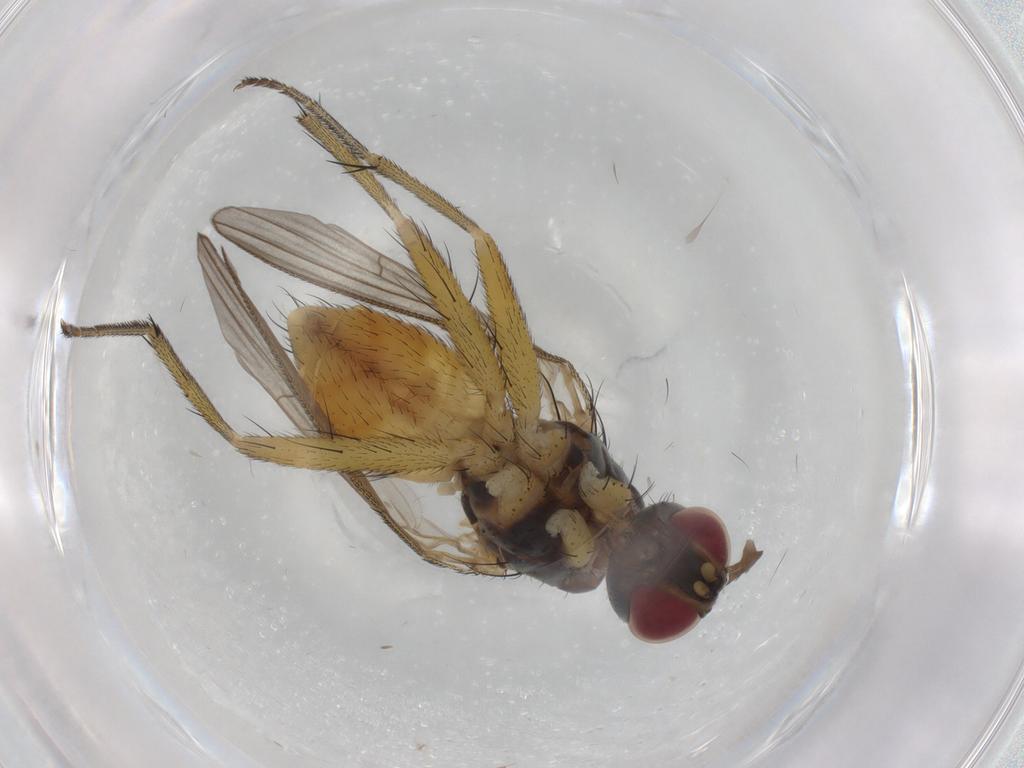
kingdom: Animalia
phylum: Arthropoda
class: Insecta
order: Diptera
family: Muscidae
